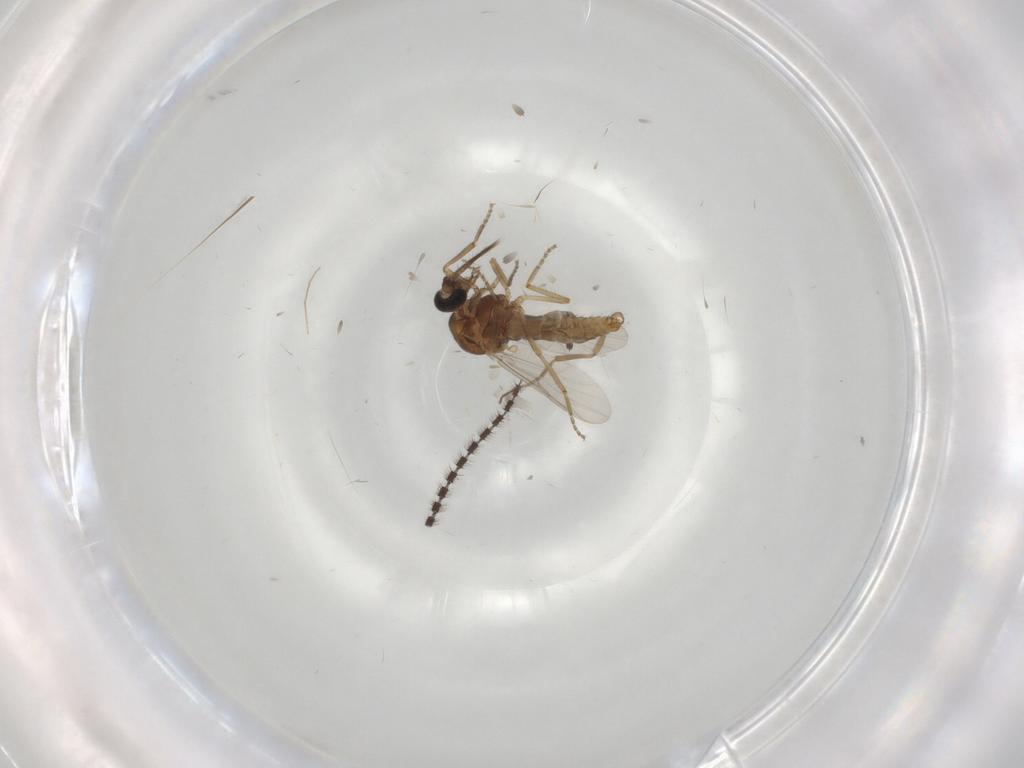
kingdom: Animalia
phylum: Arthropoda
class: Insecta
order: Diptera
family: Ceratopogonidae
